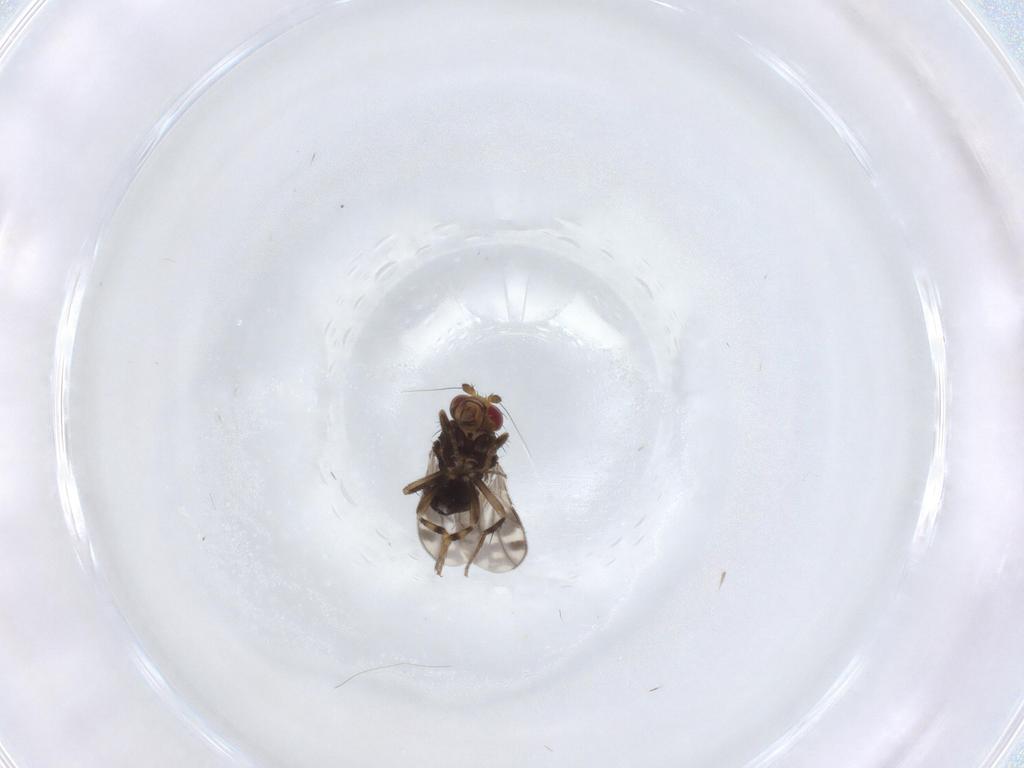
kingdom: Animalia
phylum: Arthropoda
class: Insecta
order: Diptera
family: Sphaeroceridae
